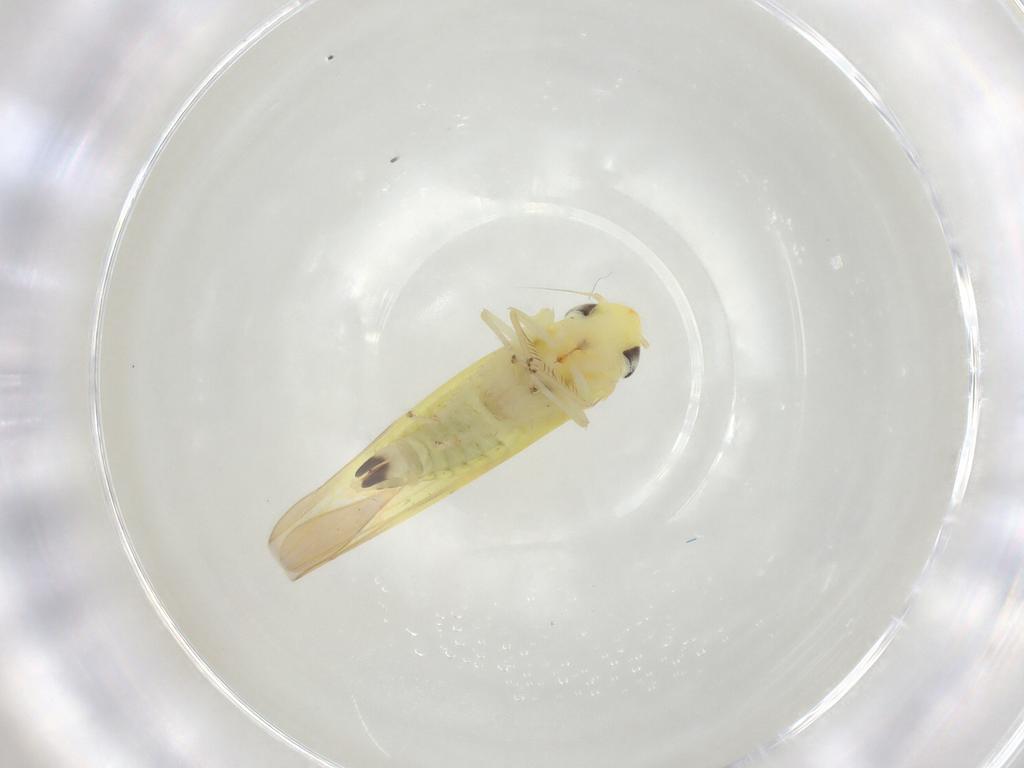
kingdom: Animalia
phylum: Arthropoda
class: Insecta
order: Hemiptera
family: Cicadellidae
